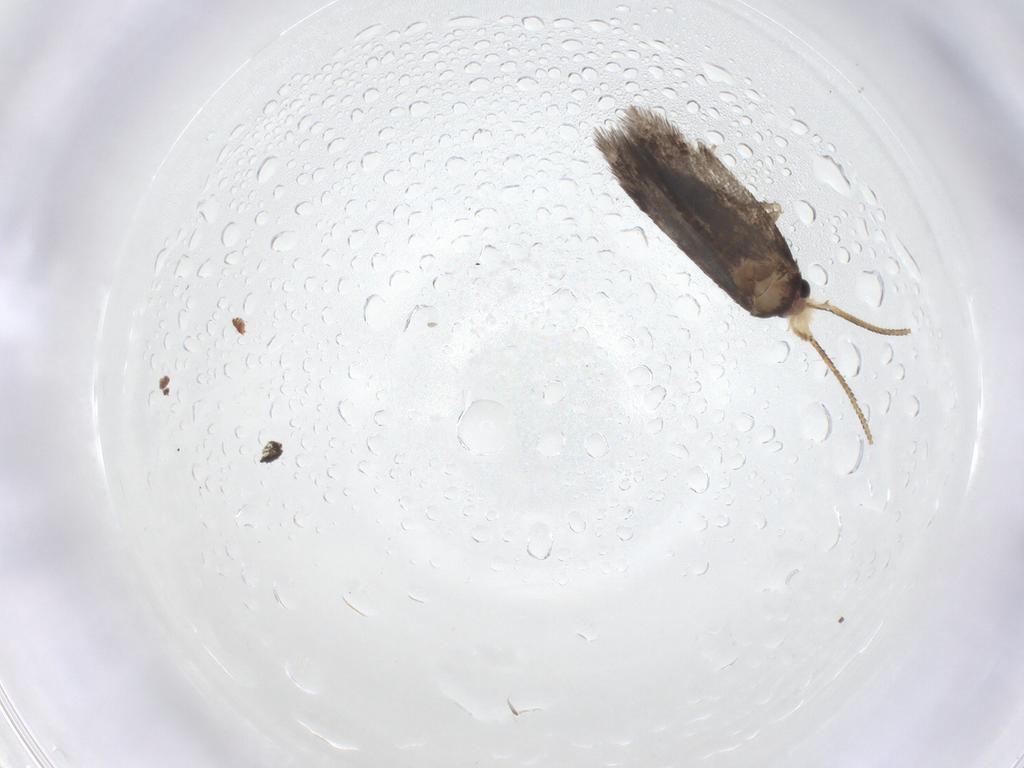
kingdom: Animalia
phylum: Arthropoda
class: Insecta
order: Lepidoptera
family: Nepticulidae
